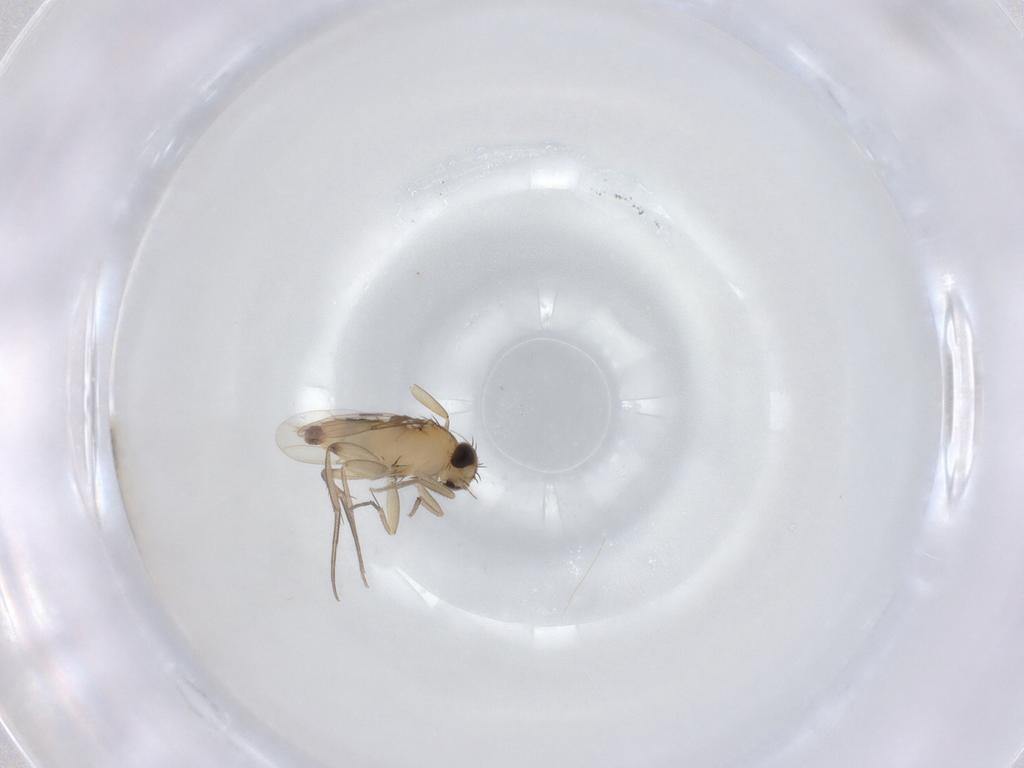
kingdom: Animalia
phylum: Arthropoda
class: Insecta
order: Diptera
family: Phoridae
